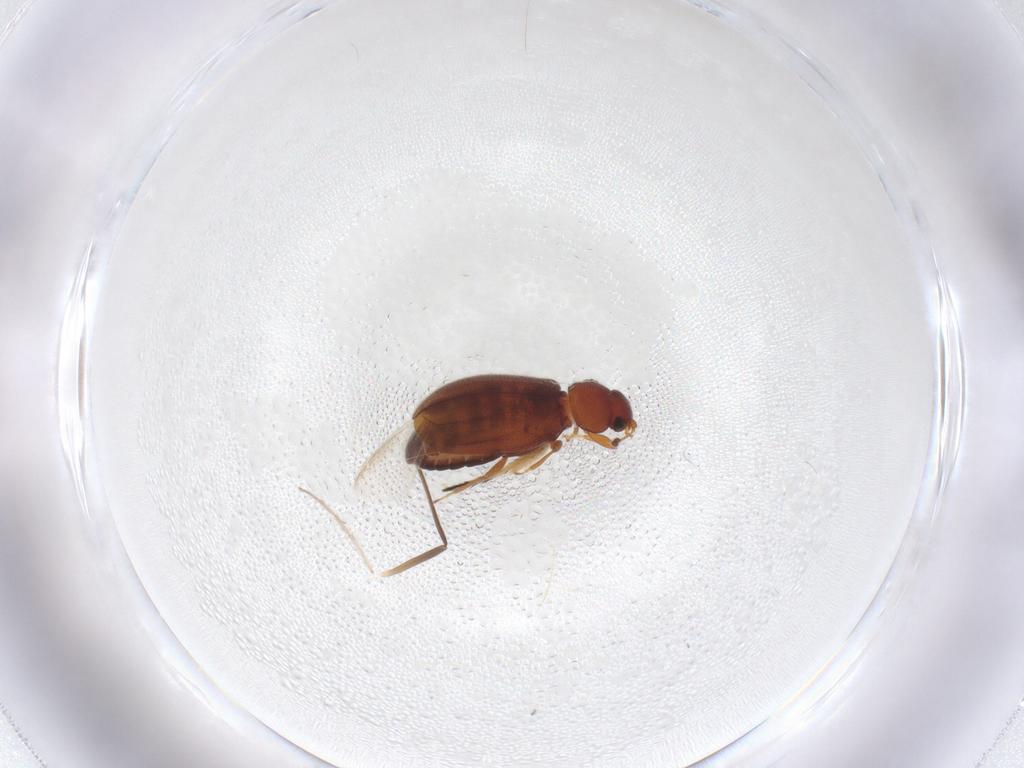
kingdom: Animalia
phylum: Arthropoda
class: Insecta
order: Coleoptera
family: Latridiidae
